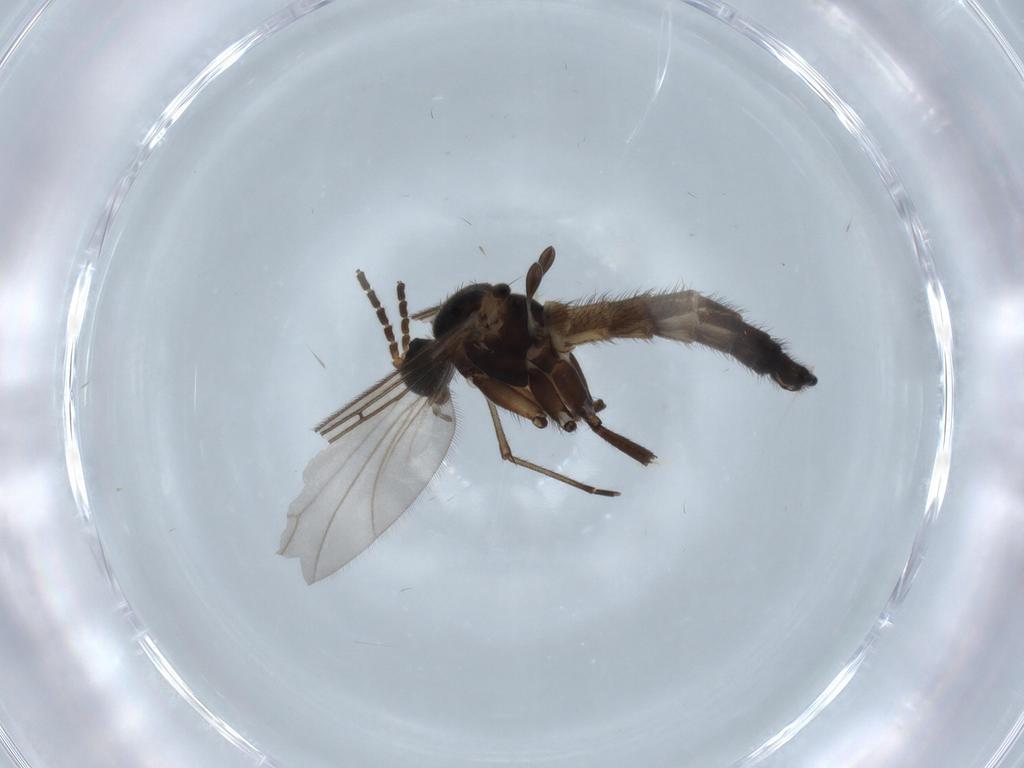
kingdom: Animalia
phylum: Arthropoda
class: Insecta
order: Diptera
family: Sciaridae
